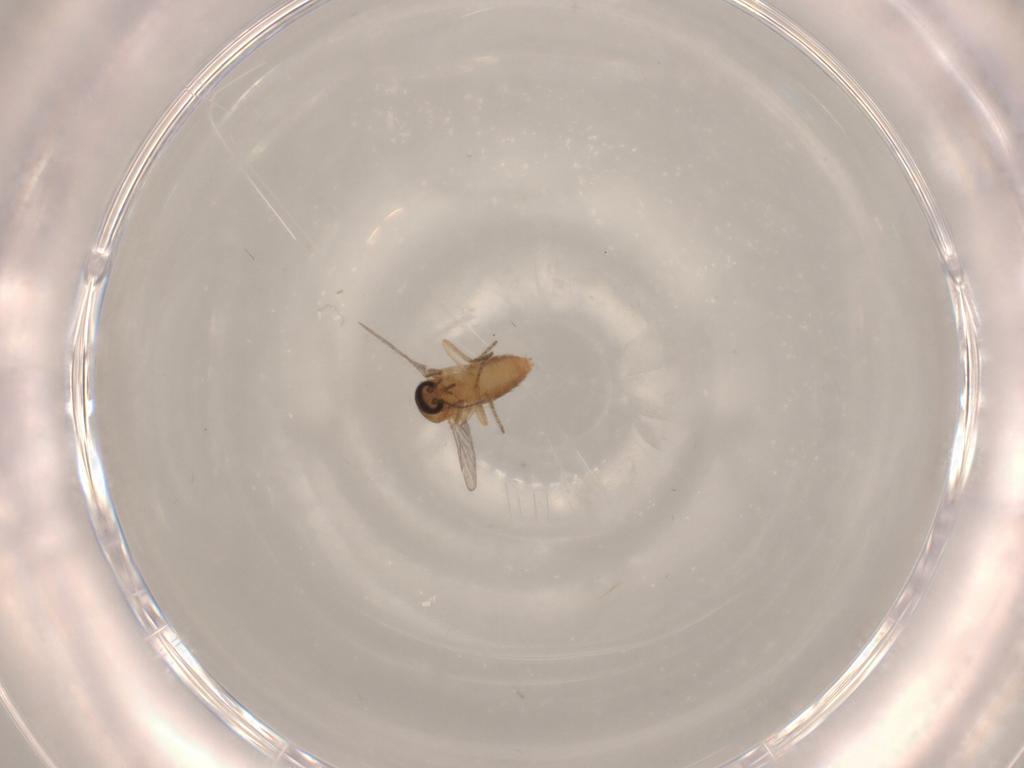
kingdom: Animalia
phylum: Arthropoda
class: Insecta
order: Diptera
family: Ceratopogonidae
